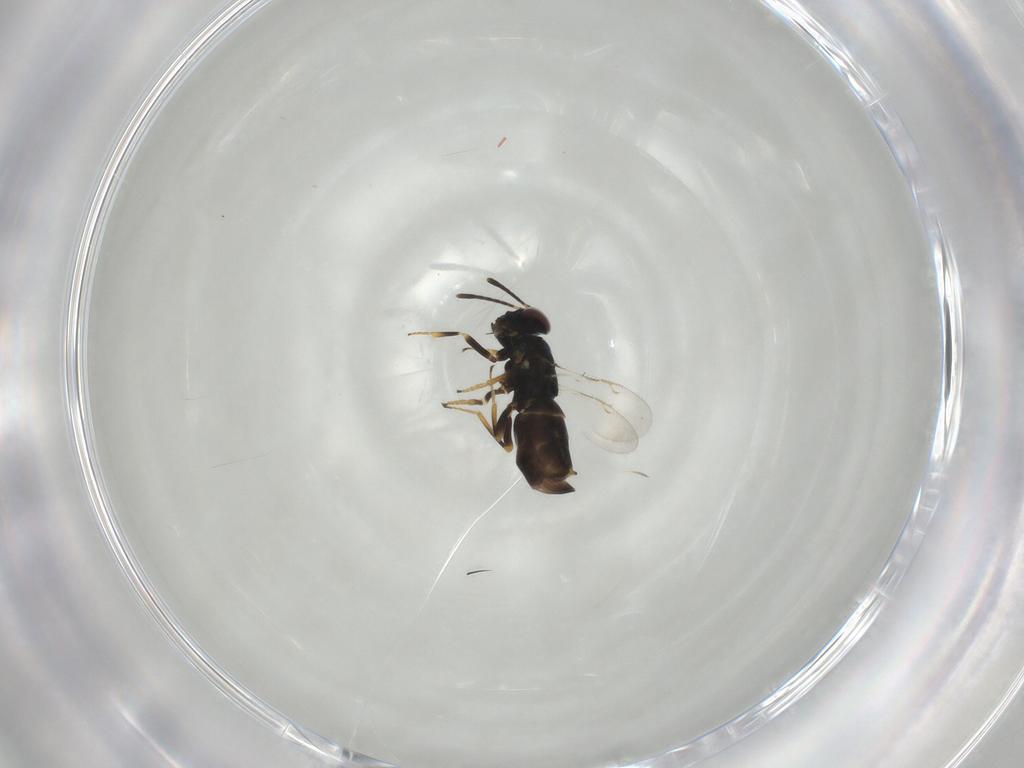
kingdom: Animalia
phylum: Arthropoda
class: Insecta
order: Hymenoptera
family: Encyrtidae
